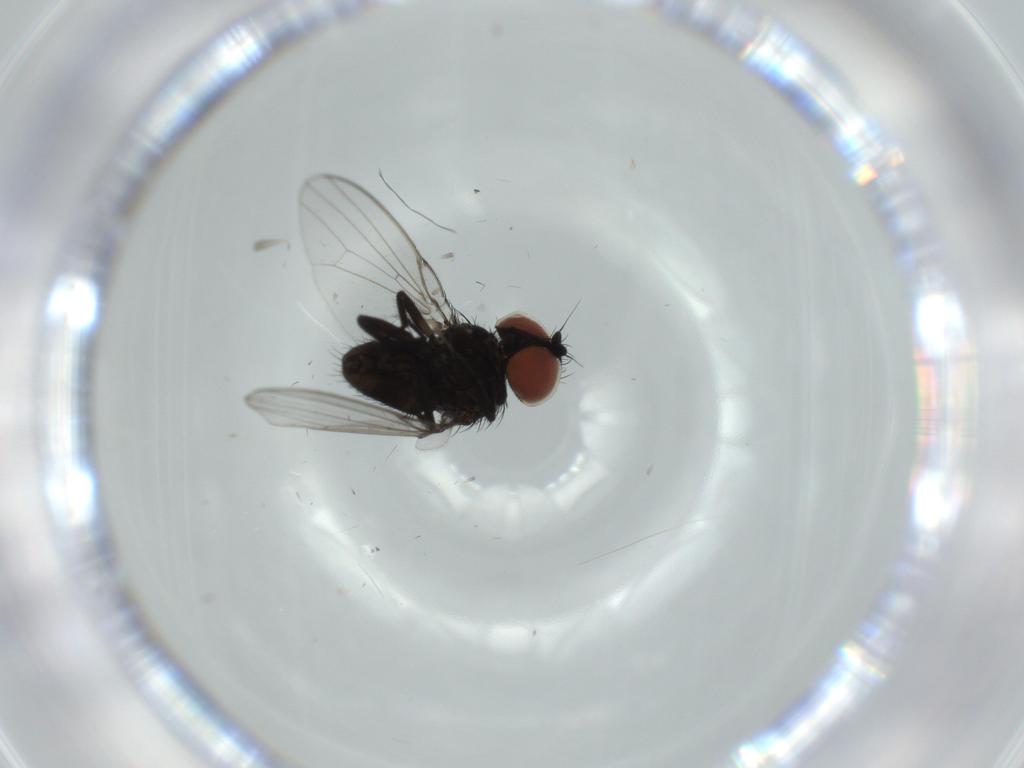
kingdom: Animalia
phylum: Arthropoda
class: Insecta
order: Diptera
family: Milichiidae
